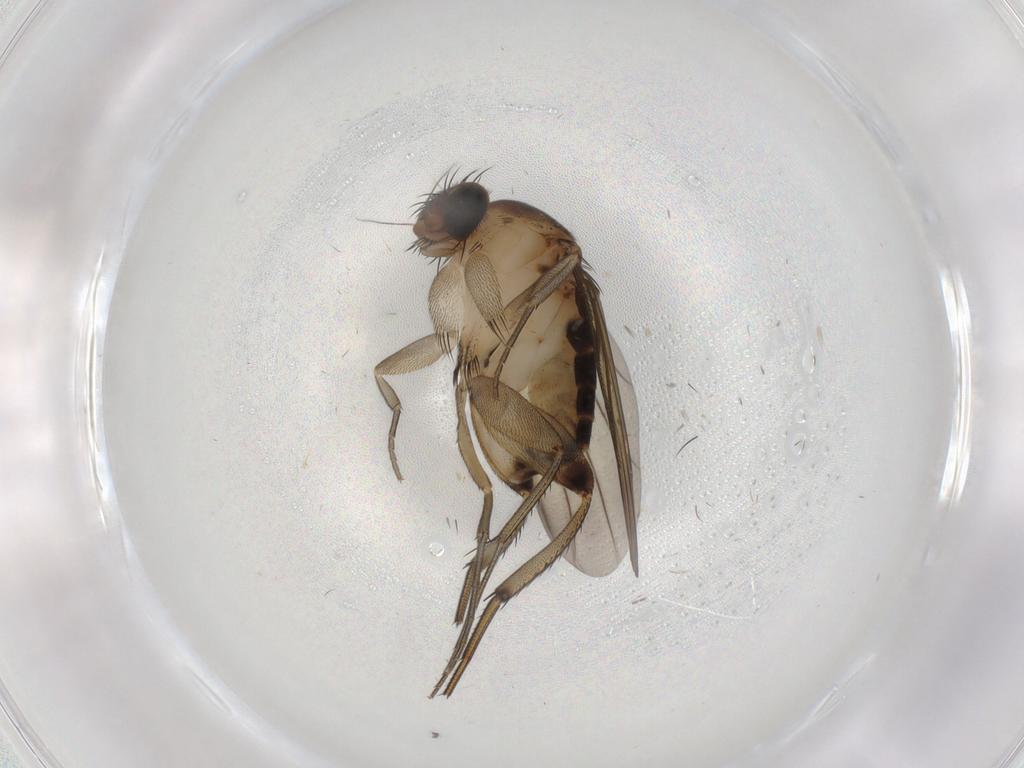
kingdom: Animalia
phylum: Arthropoda
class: Insecta
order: Diptera
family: Phoridae
